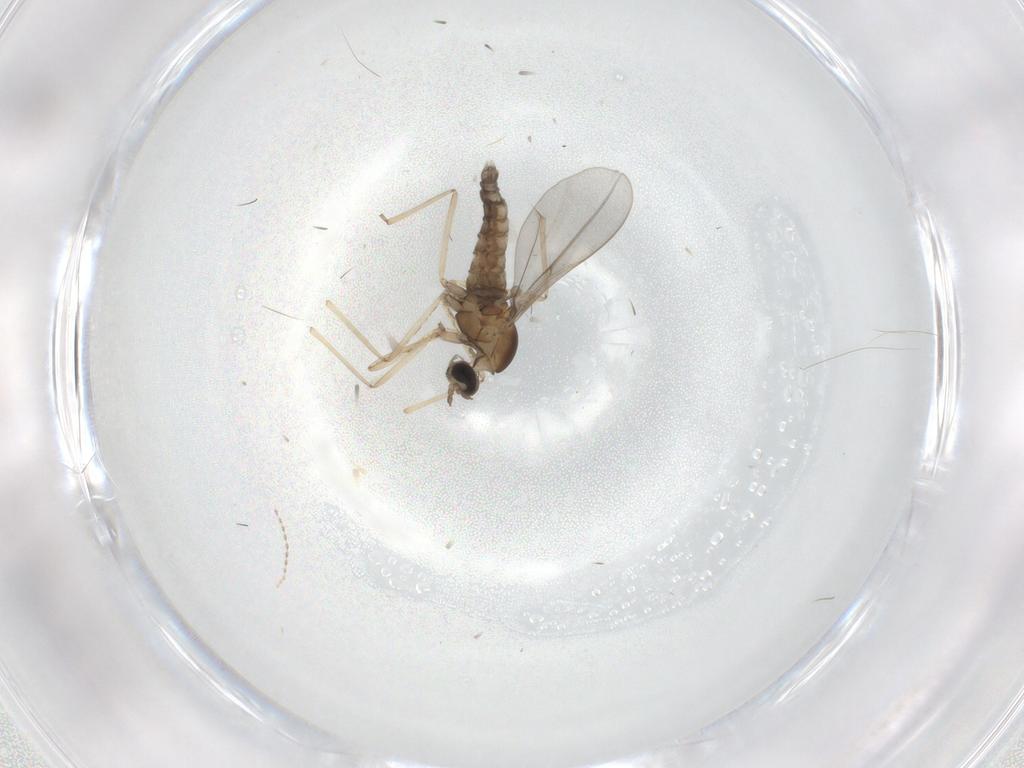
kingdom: Animalia
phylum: Arthropoda
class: Insecta
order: Diptera
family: Cecidomyiidae
